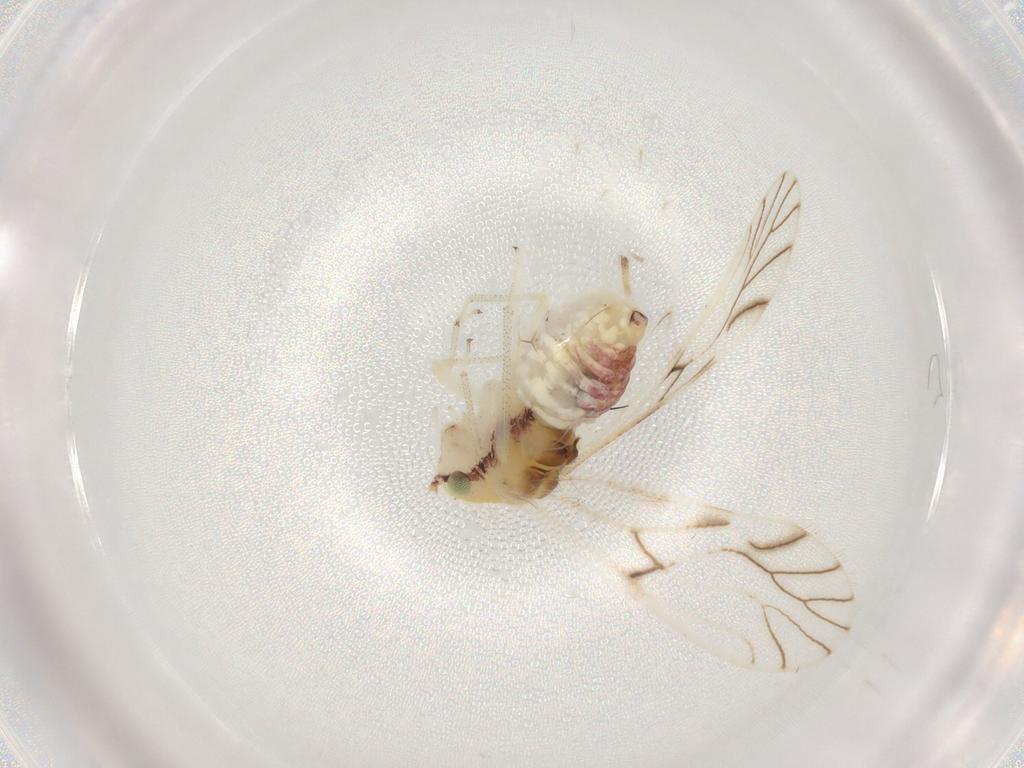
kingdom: Animalia
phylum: Arthropoda
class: Insecta
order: Psocodea
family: Philotarsidae
